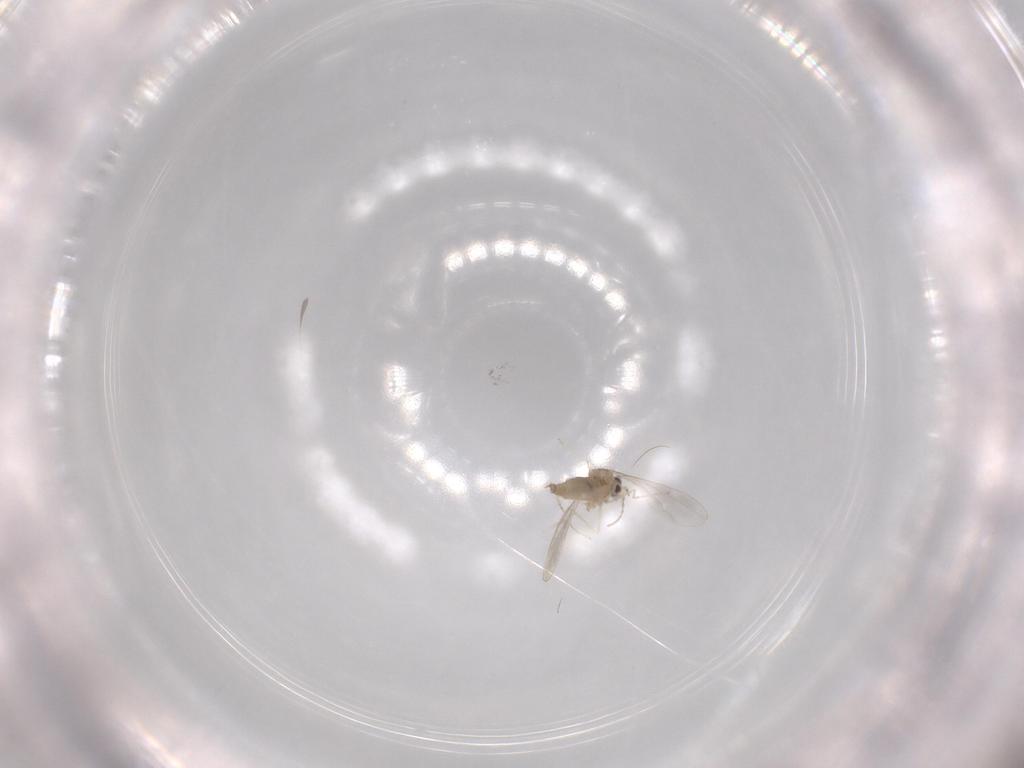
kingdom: Animalia
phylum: Arthropoda
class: Insecta
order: Diptera
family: Cecidomyiidae
